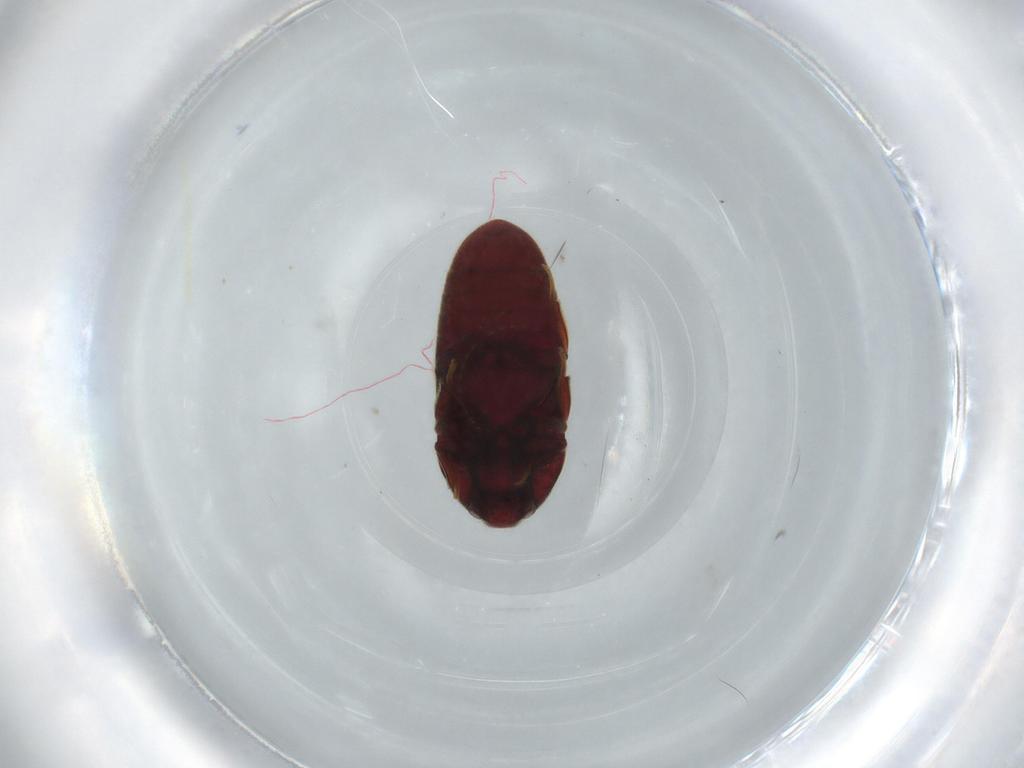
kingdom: Animalia
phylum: Arthropoda
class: Insecta
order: Coleoptera
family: Throscidae
